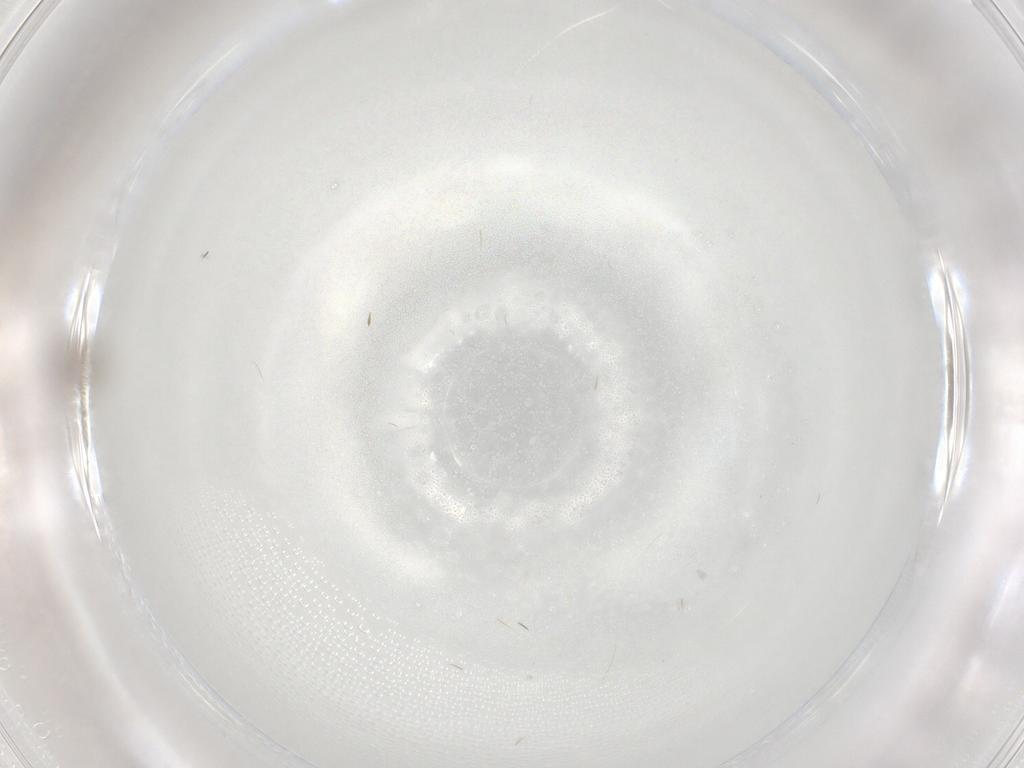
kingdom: Animalia
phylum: Arthropoda
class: Insecta
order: Diptera
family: Cecidomyiidae
